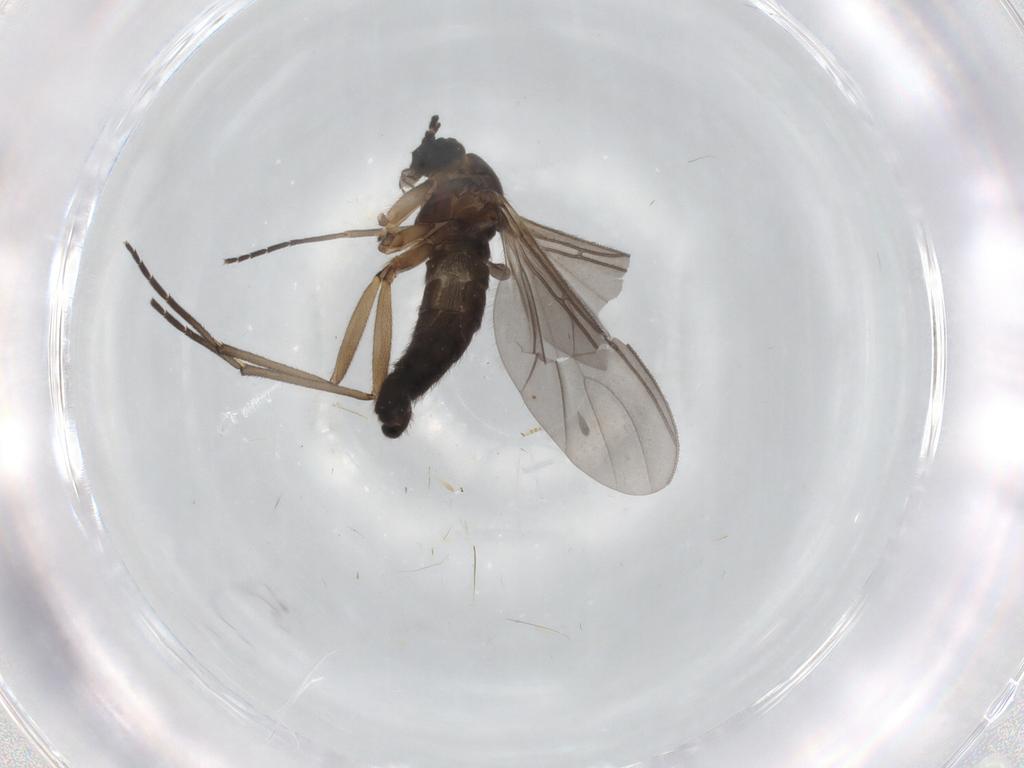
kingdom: Animalia
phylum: Arthropoda
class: Insecta
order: Diptera
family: Sciaridae
